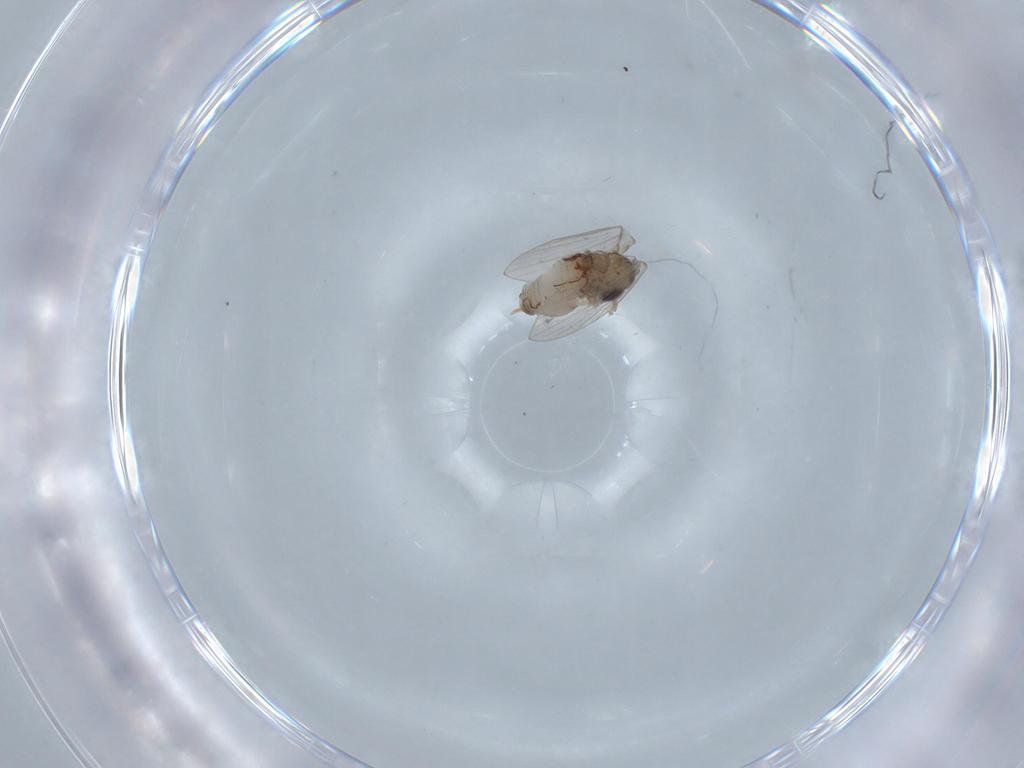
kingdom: Animalia
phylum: Arthropoda
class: Insecta
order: Diptera
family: Psychodidae
